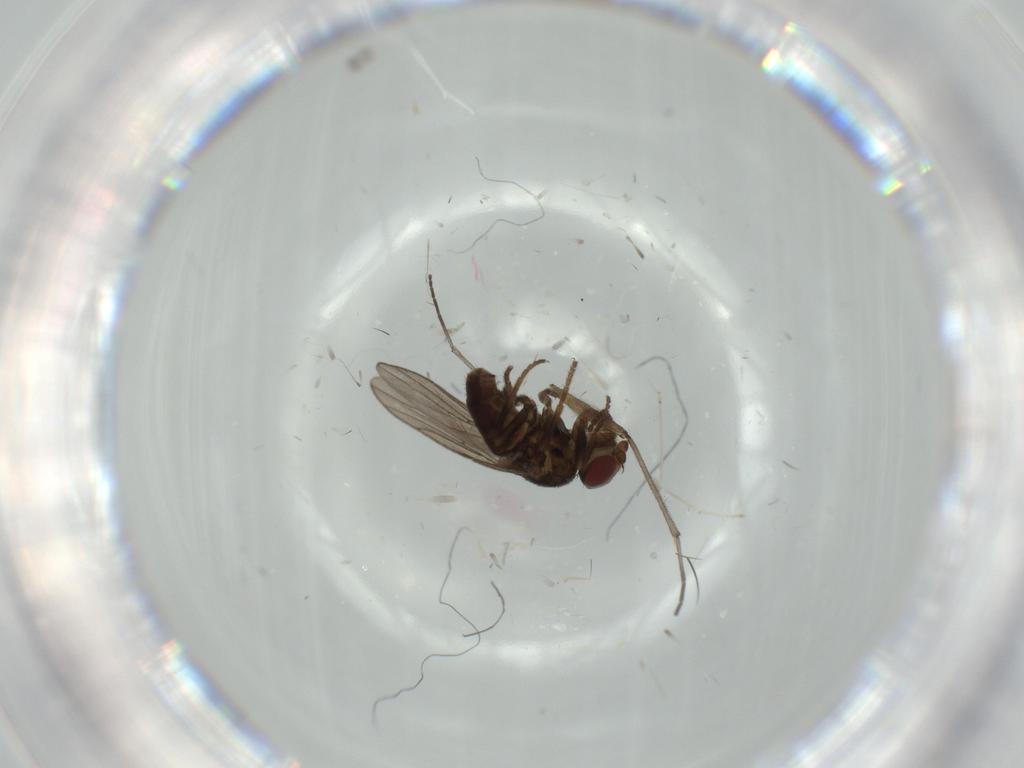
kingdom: Animalia
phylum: Arthropoda
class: Insecta
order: Diptera
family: Chloropidae
